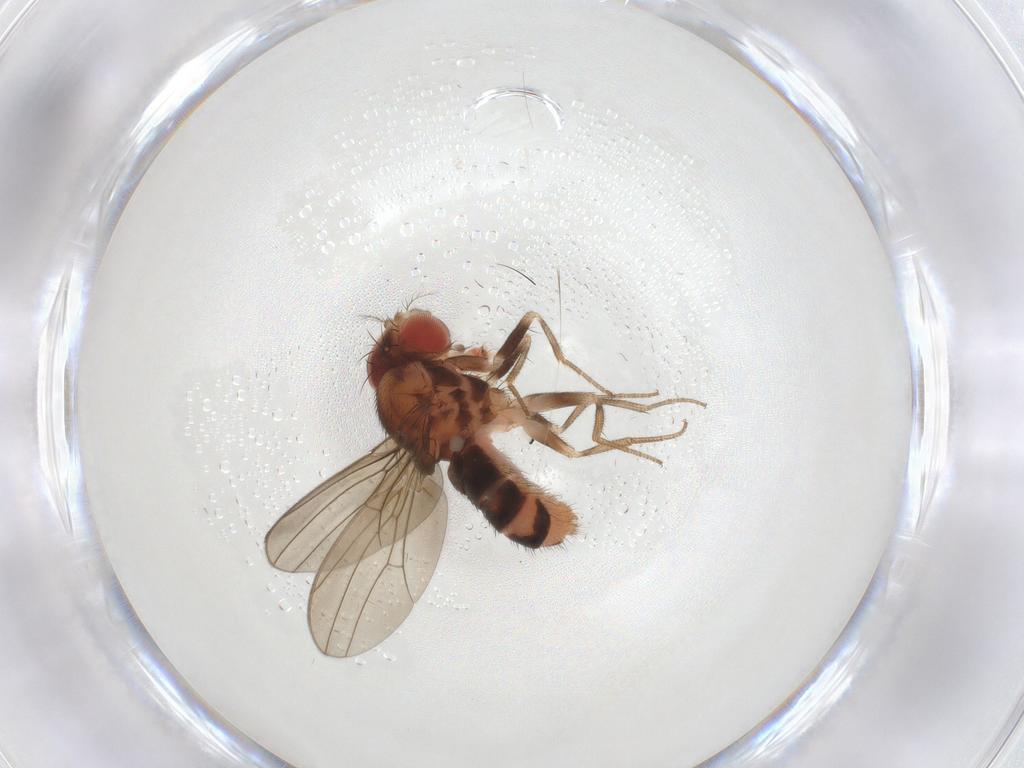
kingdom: Animalia
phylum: Arthropoda
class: Insecta
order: Diptera
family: Drosophilidae
